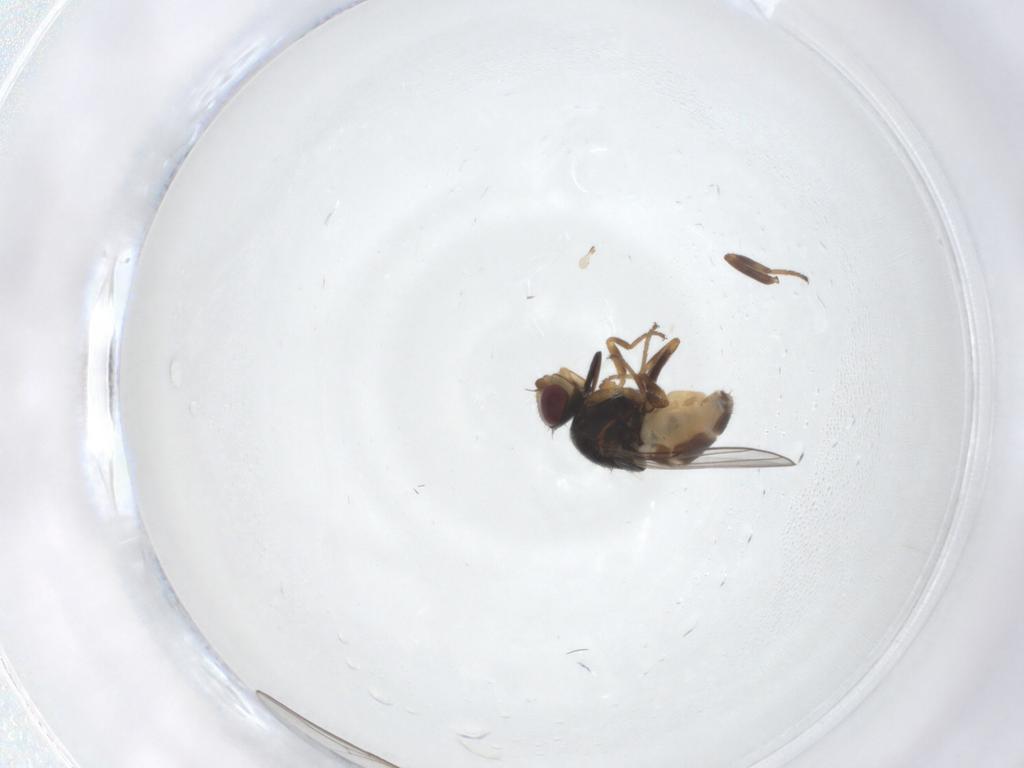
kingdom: Animalia
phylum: Arthropoda
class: Insecta
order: Diptera
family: Chloropidae
